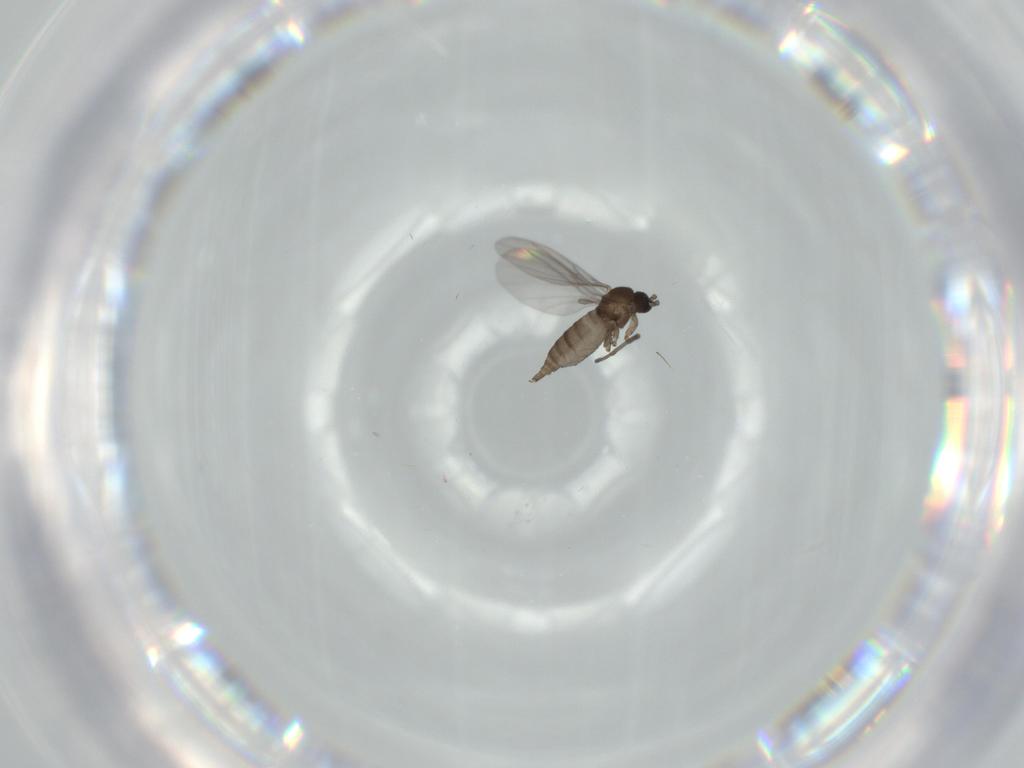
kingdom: Animalia
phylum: Arthropoda
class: Insecta
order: Diptera
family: Sciaridae
